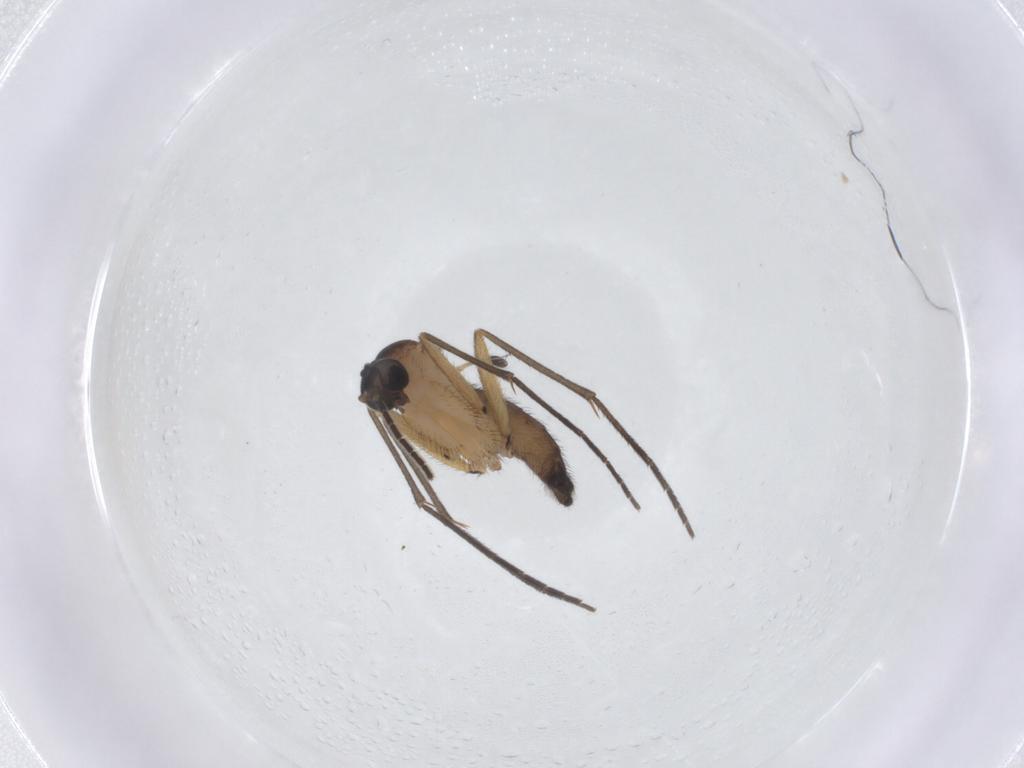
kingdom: Animalia
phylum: Arthropoda
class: Insecta
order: Diptera
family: Sciaridae
